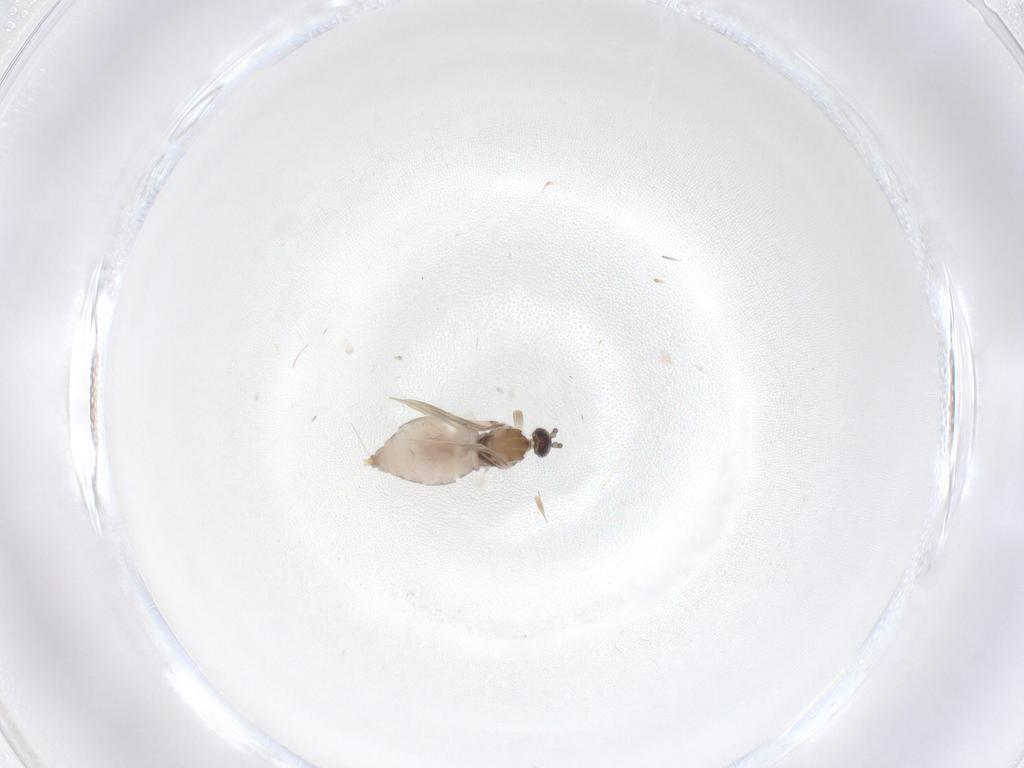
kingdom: Animalia
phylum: Arthropoda
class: Insecta
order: Diptera
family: Cecidomyiidae
